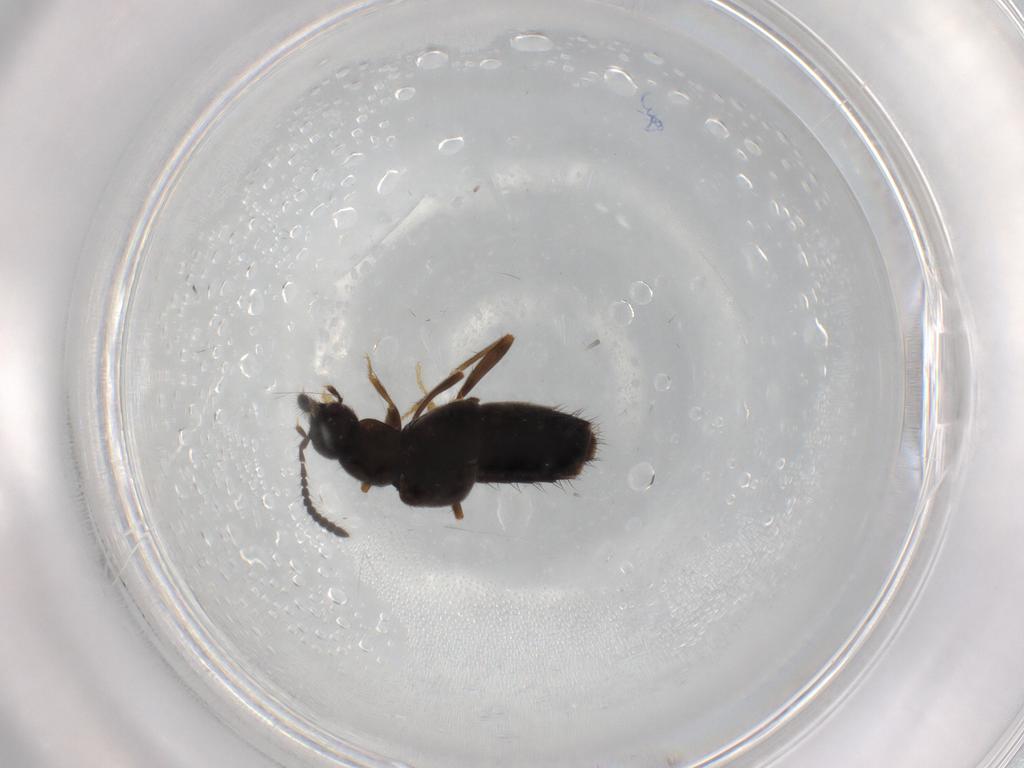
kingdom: Animalia
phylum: Arthropoda
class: Insecta
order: Coleoptera
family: Staphylinidae
